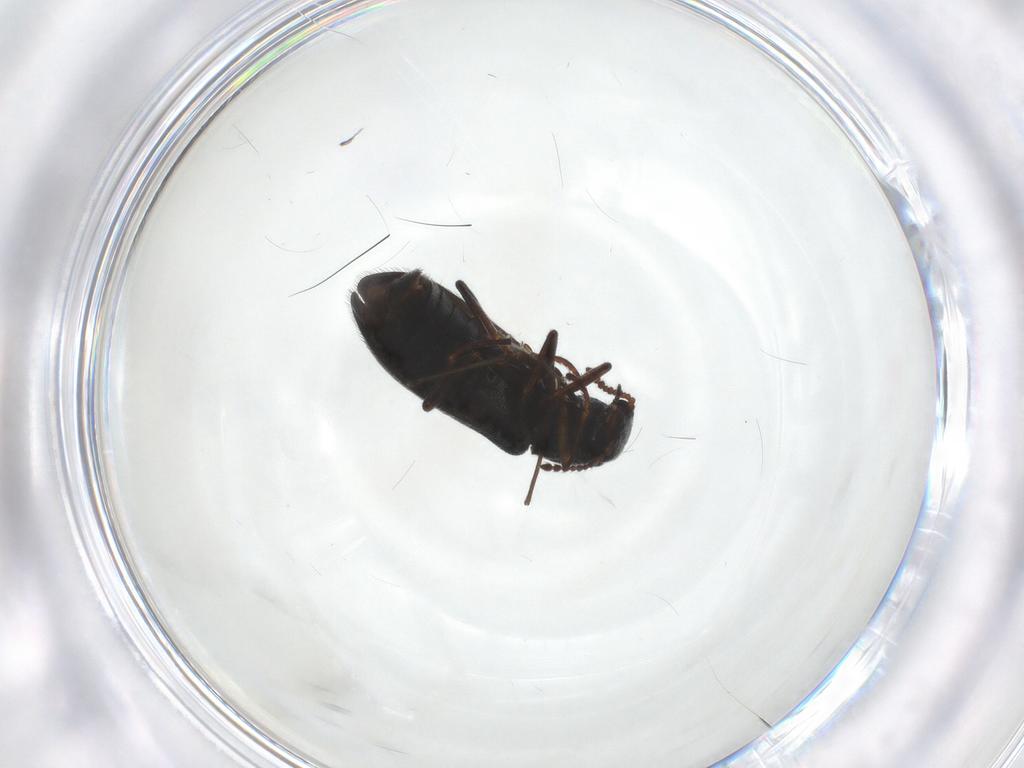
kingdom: Animalia
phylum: Arthropoda
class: Insecta
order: Coleoptera
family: Melyridae
